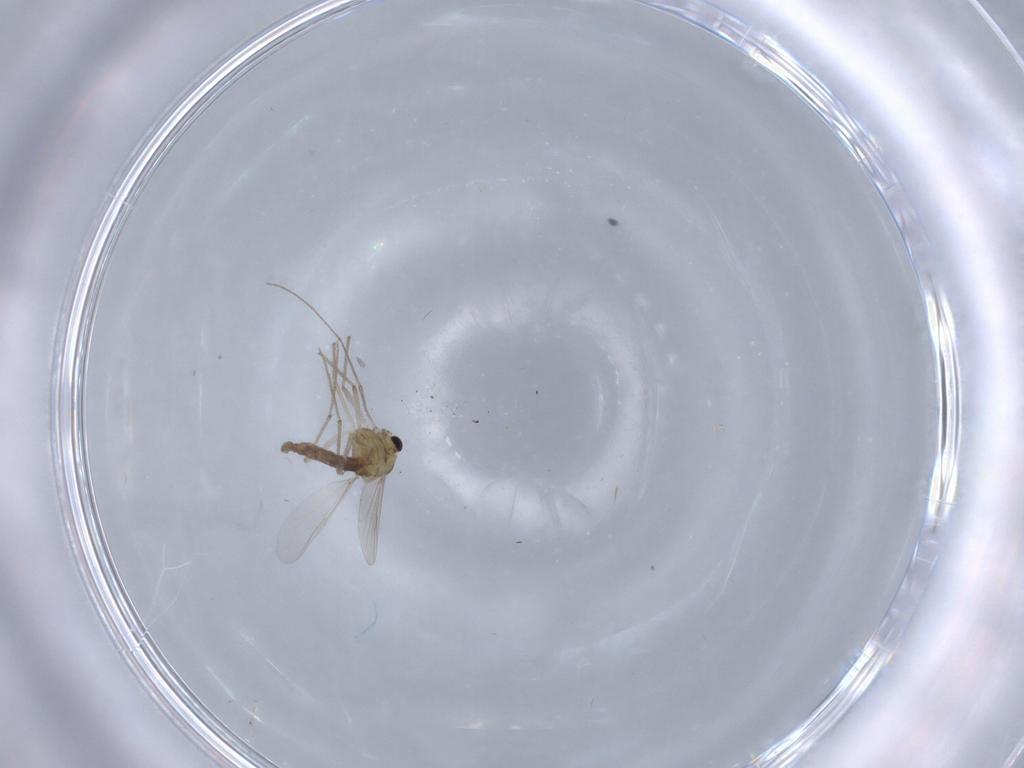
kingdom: Animalia
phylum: Arthropoda
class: Insecta
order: Diptera
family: Chironomidae
